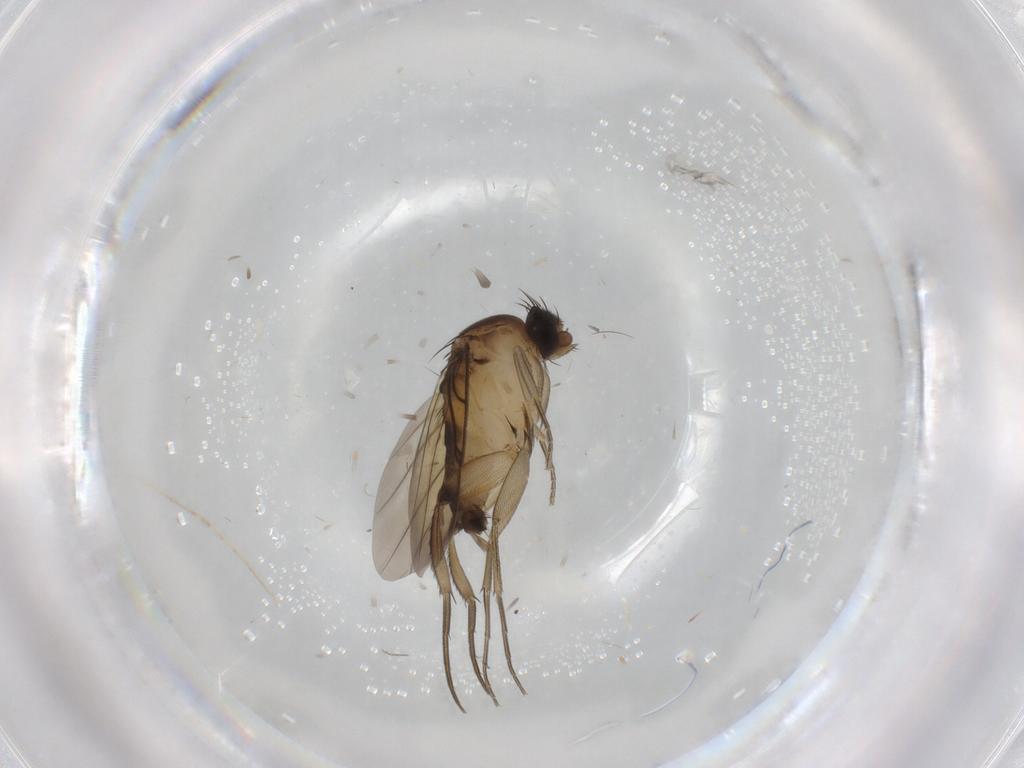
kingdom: Animalia
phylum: Arthropoda
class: Insecta
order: Diptera
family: Phoridae
